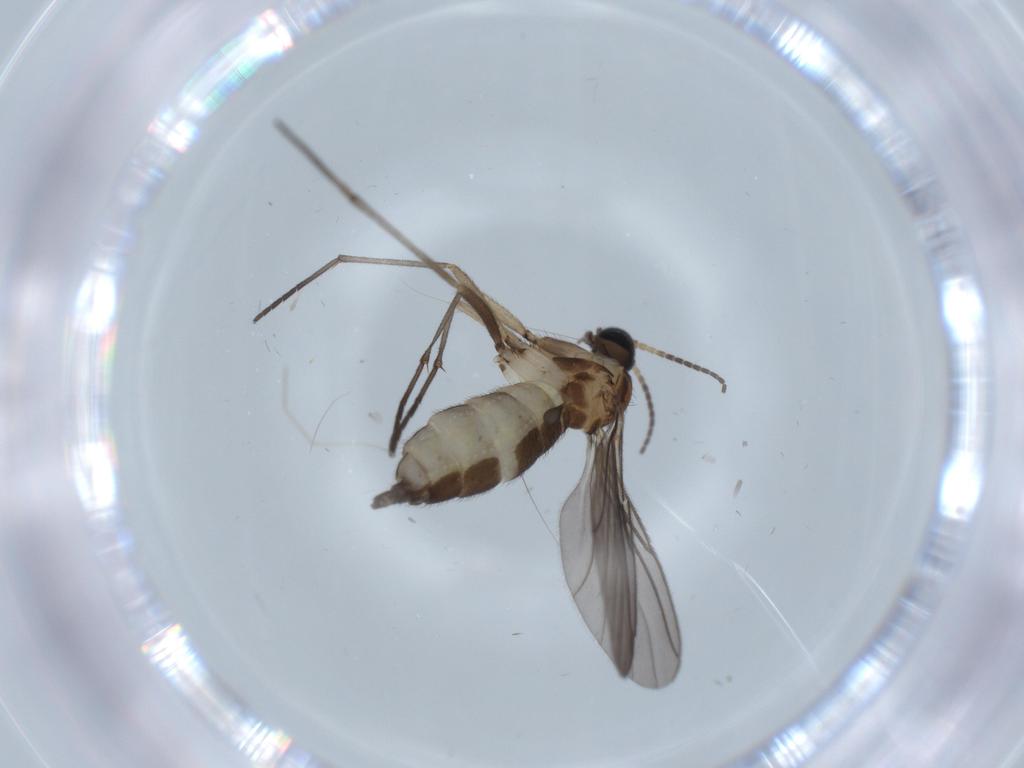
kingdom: Animalia
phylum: Arthropoda
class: Insecta
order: Diptera
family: Sciaridae
